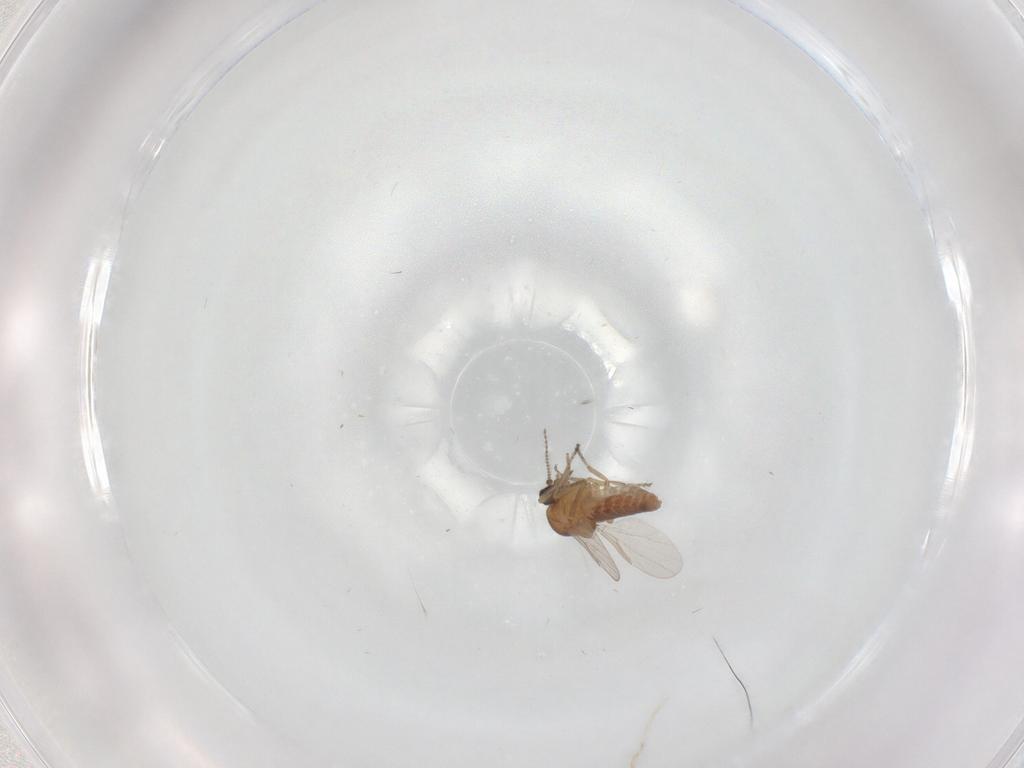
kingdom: Animalia
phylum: Arthropoda
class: Insecta
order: Diptera
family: Ceratopogonidae
